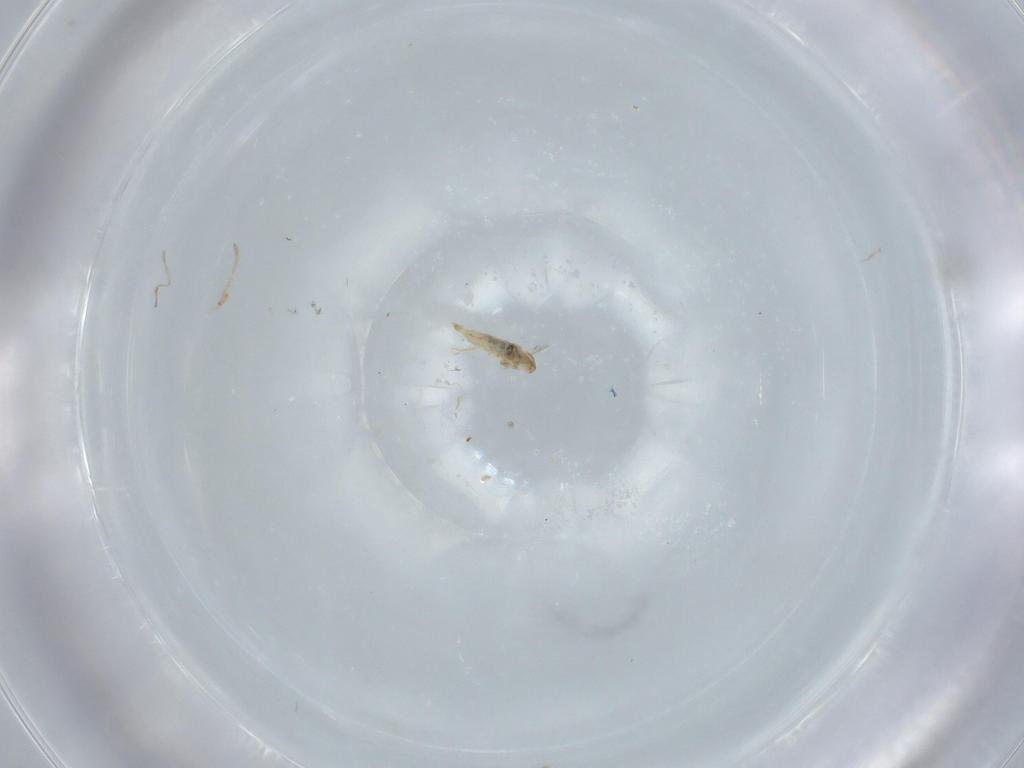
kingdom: Animalia
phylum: Arthropoda
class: Insecta
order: Diptera
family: Cecidomyiidae
